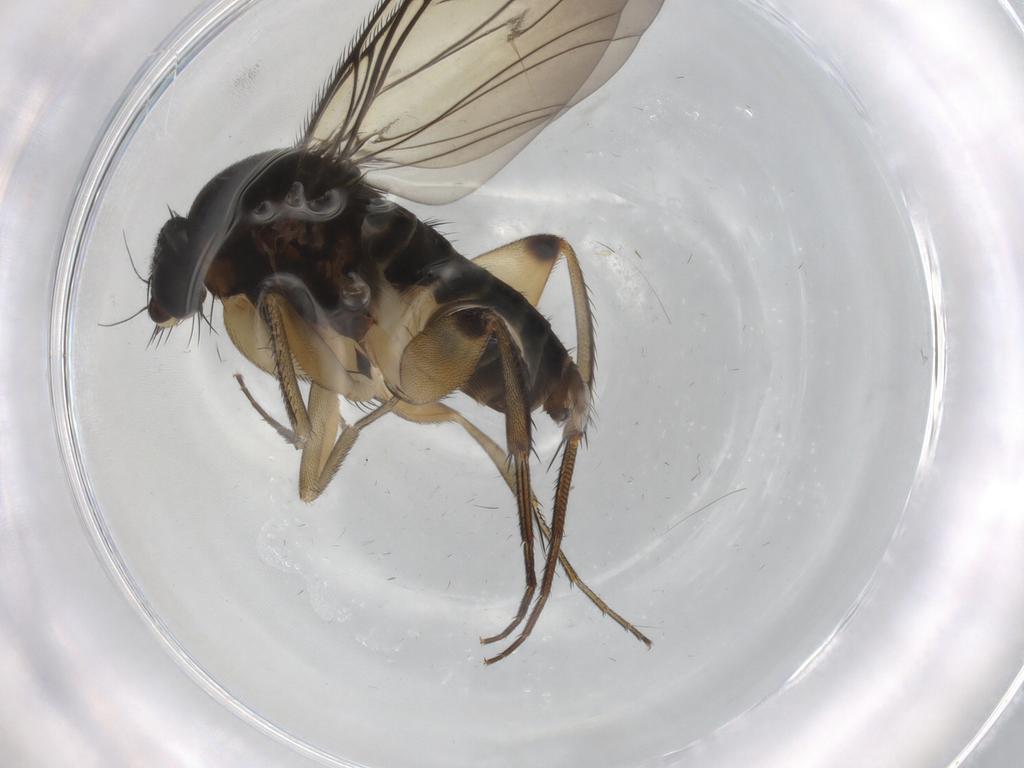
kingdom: Animalia
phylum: Arthropoda
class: Insecta
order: Diptera
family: Phoridae
